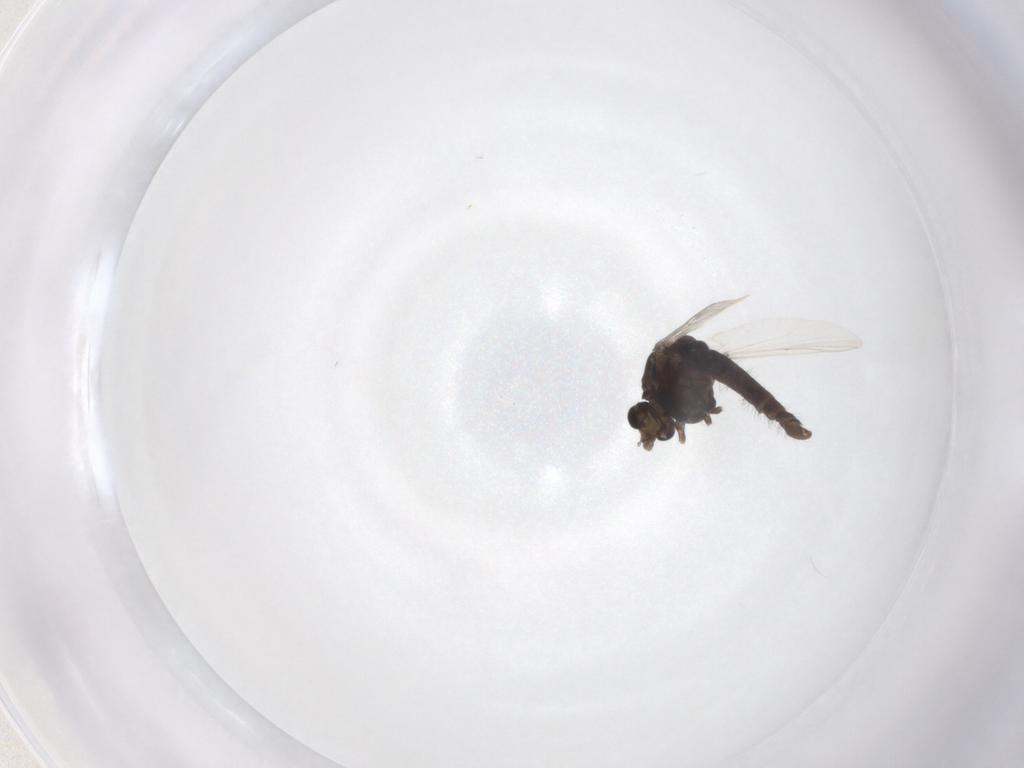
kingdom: Animalia
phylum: Arthropoda
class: Insecta
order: Diptera
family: Chironomidae
